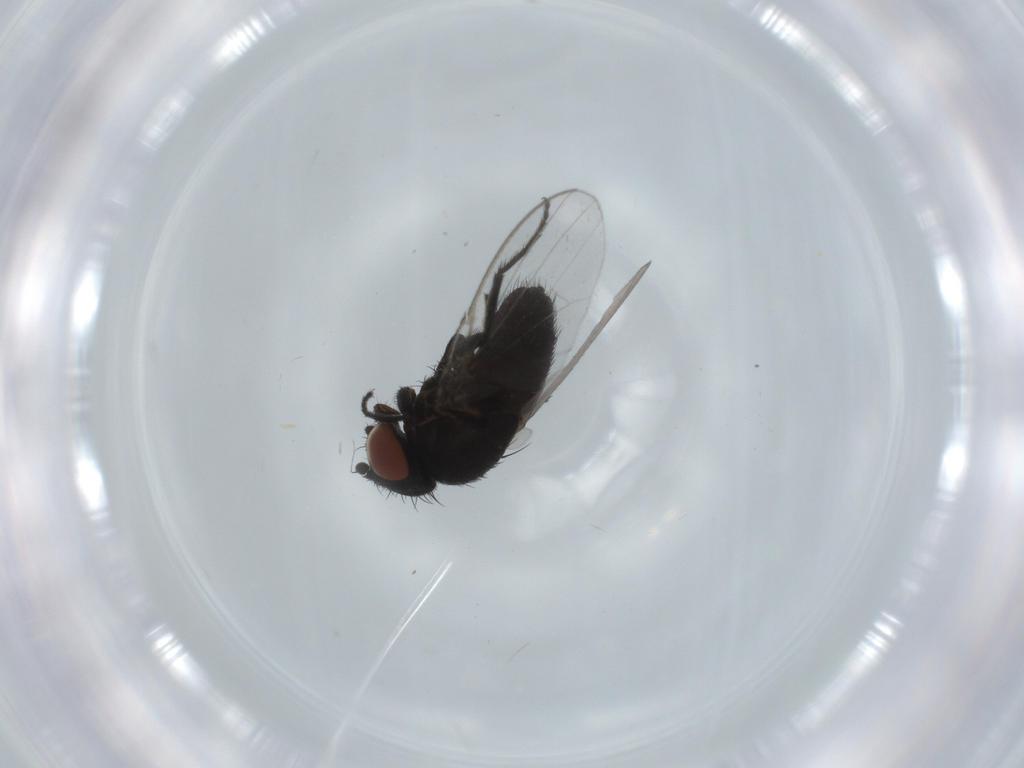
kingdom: Animalia
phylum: Arthropoda
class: Insecta
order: Diptera
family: Milichiidae
